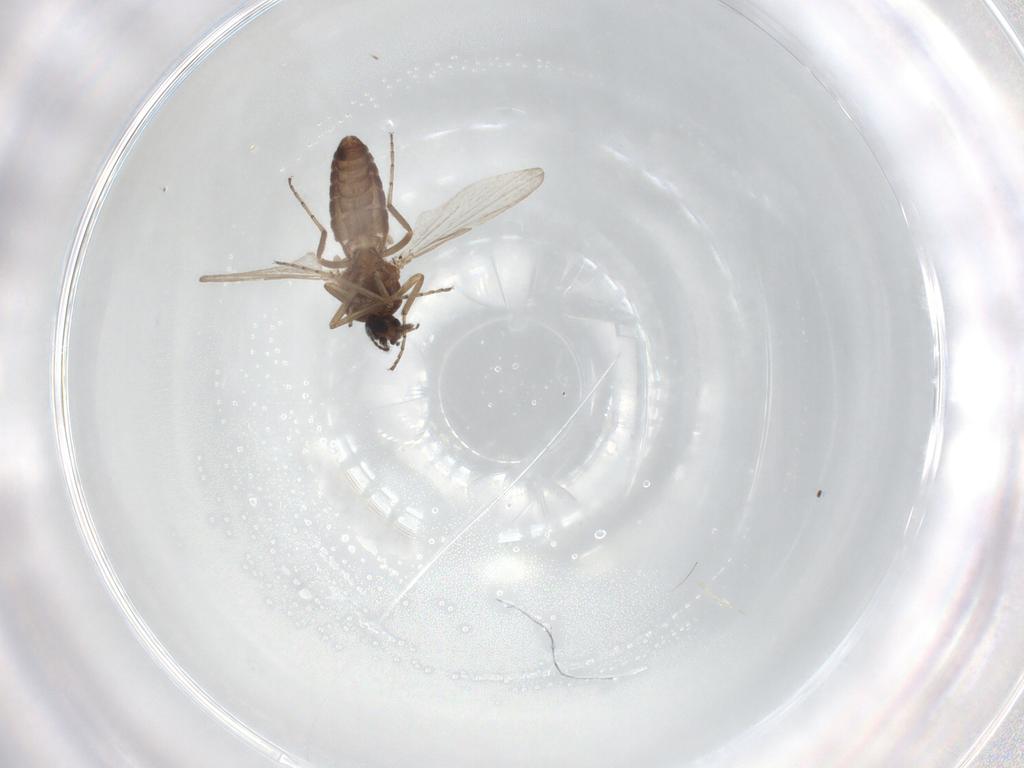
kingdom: Animalia
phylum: Arthropoda
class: Insecta
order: Diptera
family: Ceratopogonidae
